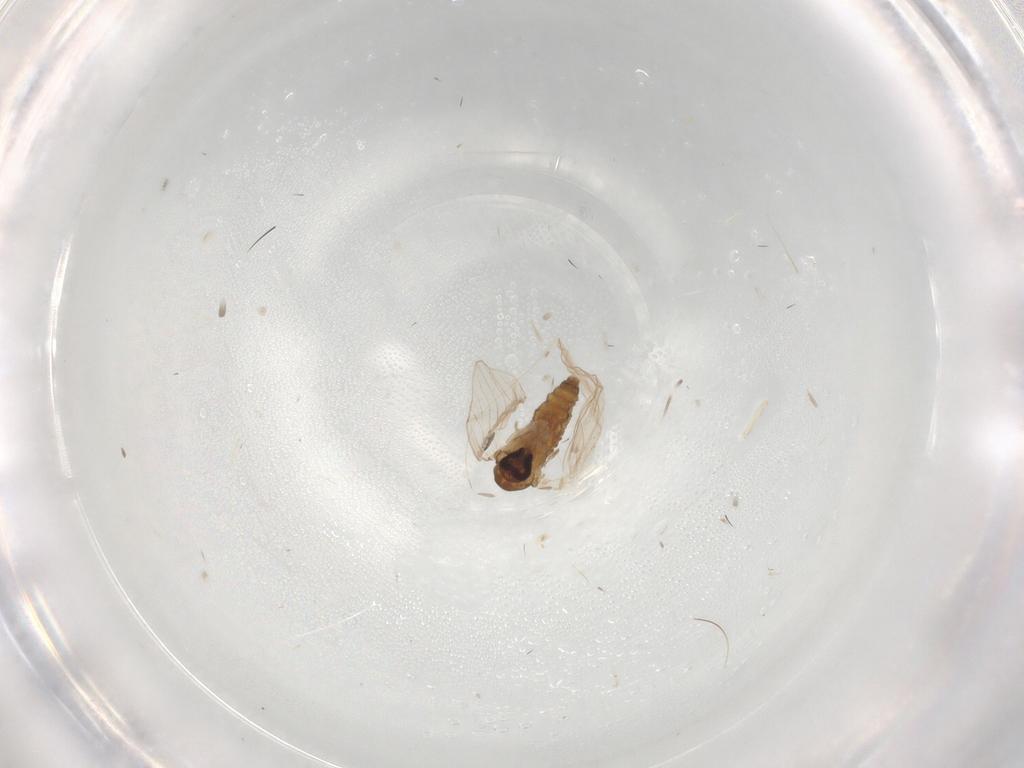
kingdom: Animalia
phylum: Arthropoda
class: Insecta
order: Diptera
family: Psychodidae
